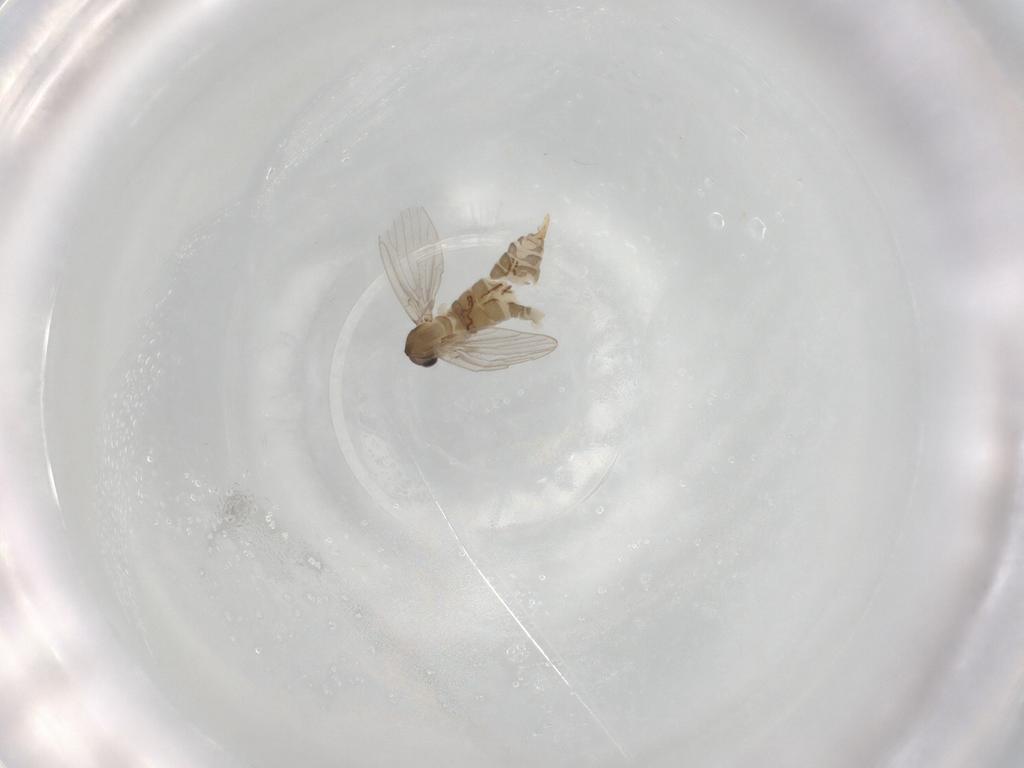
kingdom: Animalia
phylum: Arthropoda
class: Insecta
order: Diptera
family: Psychodidae
